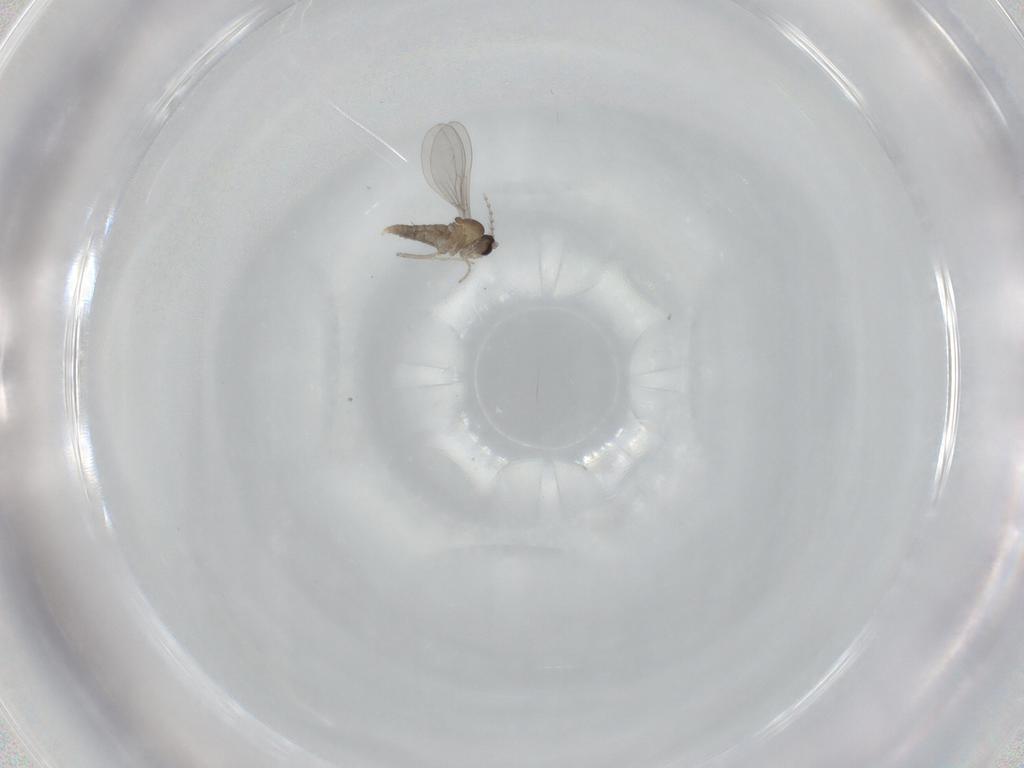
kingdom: Animalia
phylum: Arthropoda
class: Insecta
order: Diptera
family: Cecidomyiidae
